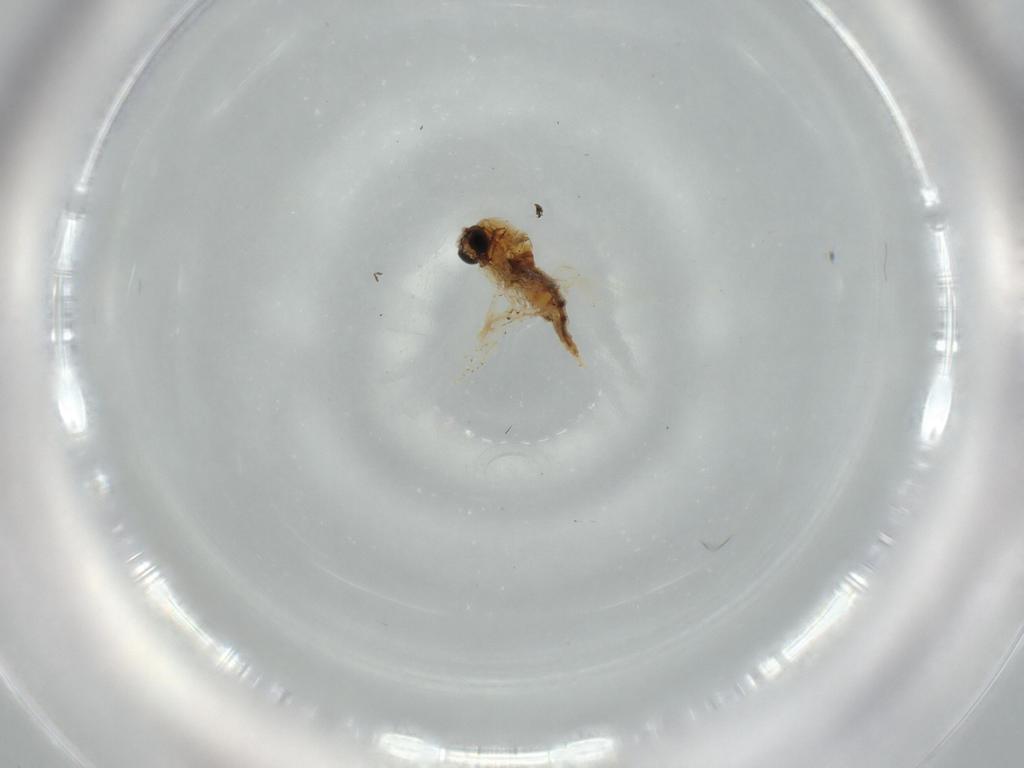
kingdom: Animalia
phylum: Arthropoda
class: Insecta
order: Diptera
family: Sciaridae
